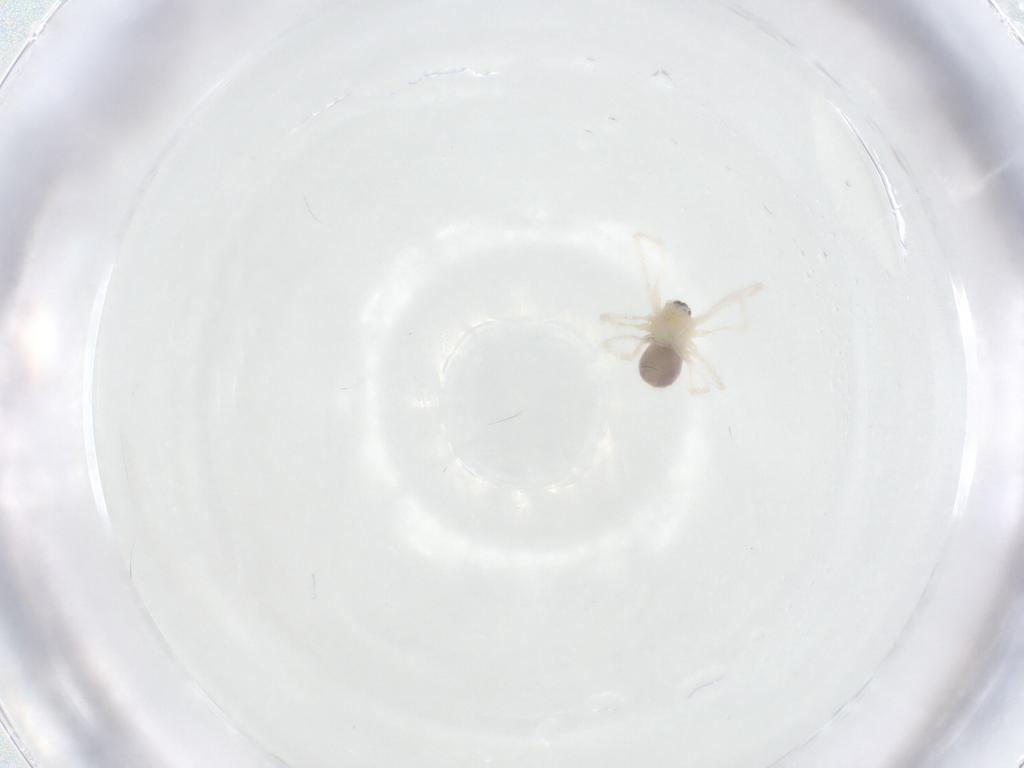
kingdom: Animalia
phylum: Arthropoda
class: Arachnida
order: Araneae
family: Pholcidae
